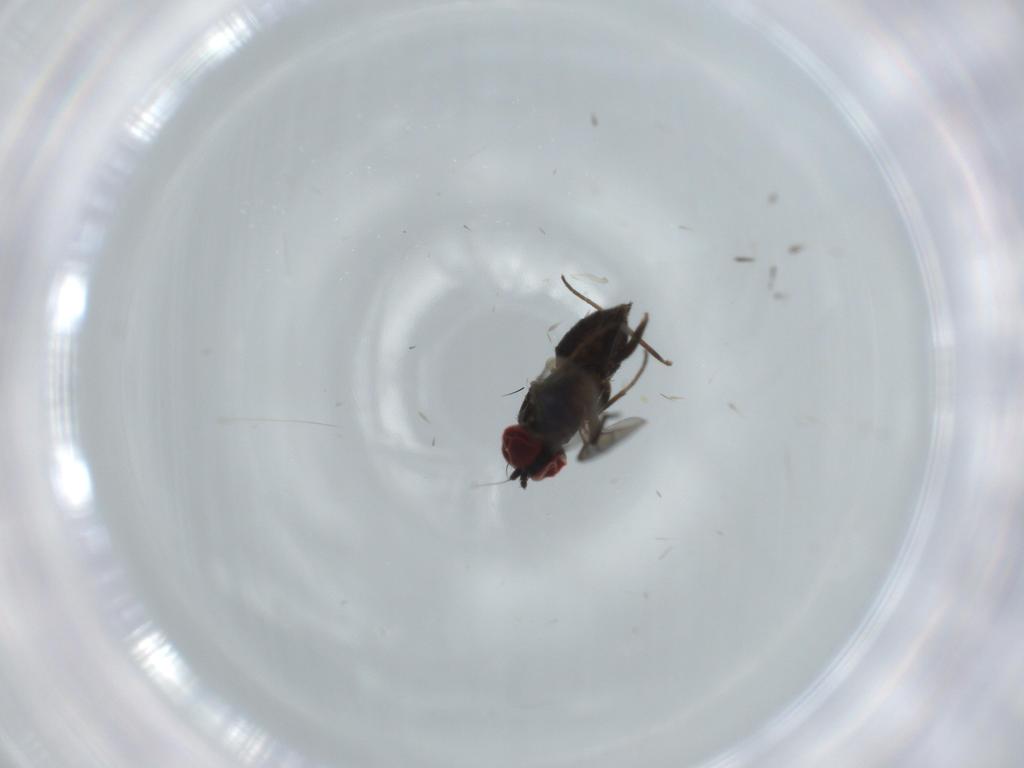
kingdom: Animalia
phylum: Arthropoda
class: Insecta
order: Diptera
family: Dolichopodidae
